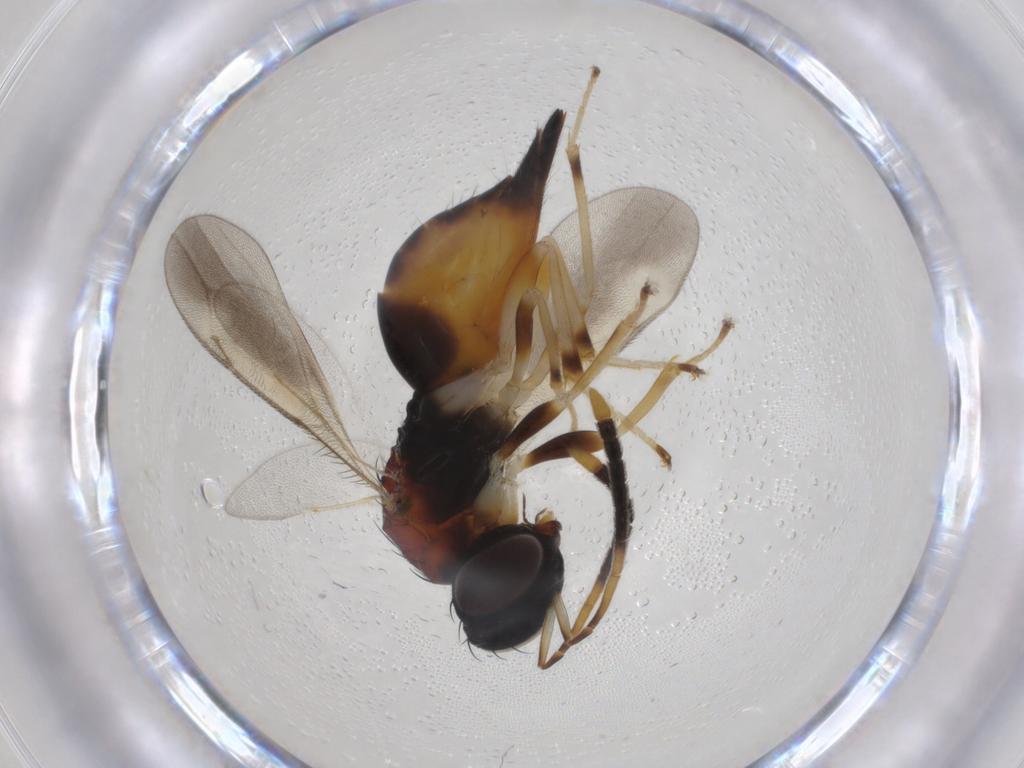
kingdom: Animalia
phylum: Arthropoda
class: Insecta
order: Hymenoptera
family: Diparidae
